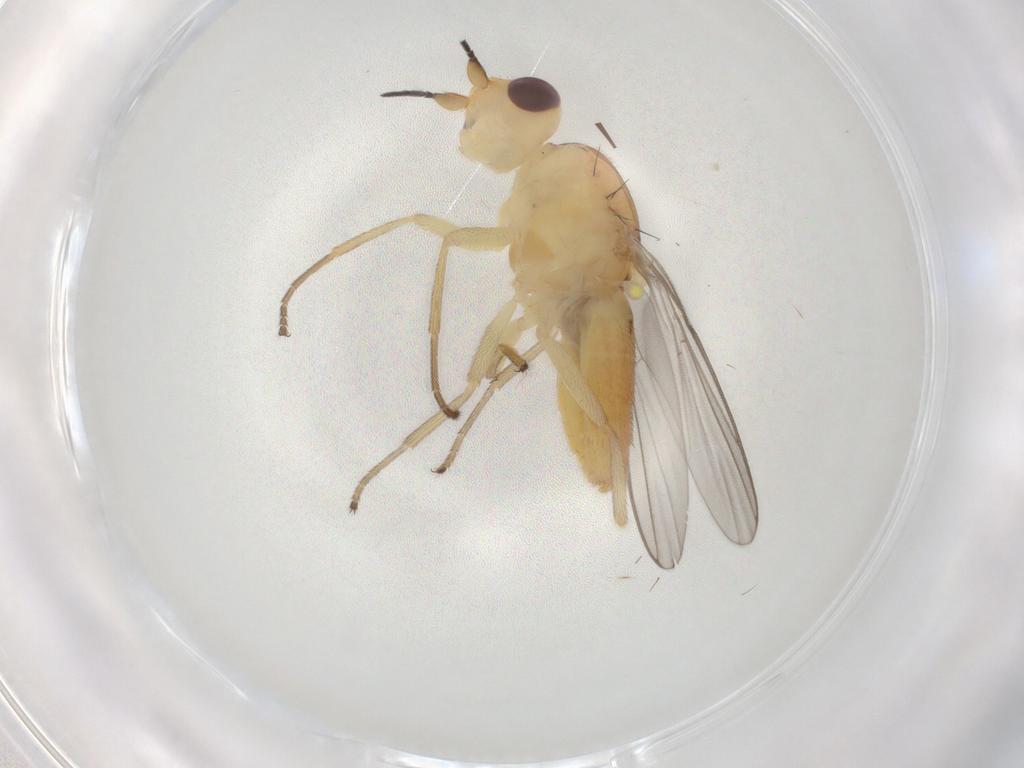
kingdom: Animalia
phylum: Arthropoda
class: Insecta
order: Diptera
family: Chloropidae
